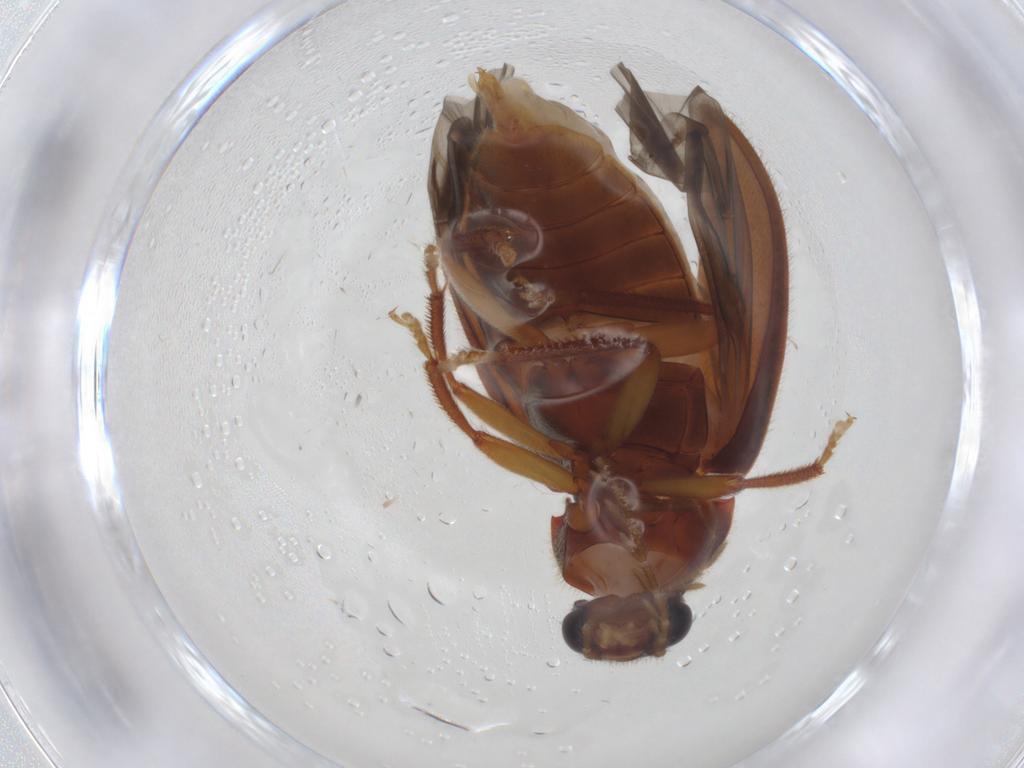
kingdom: Animalia
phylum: Arthropoda
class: Insecta
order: Coleoptera
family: Ptilodactylidae
